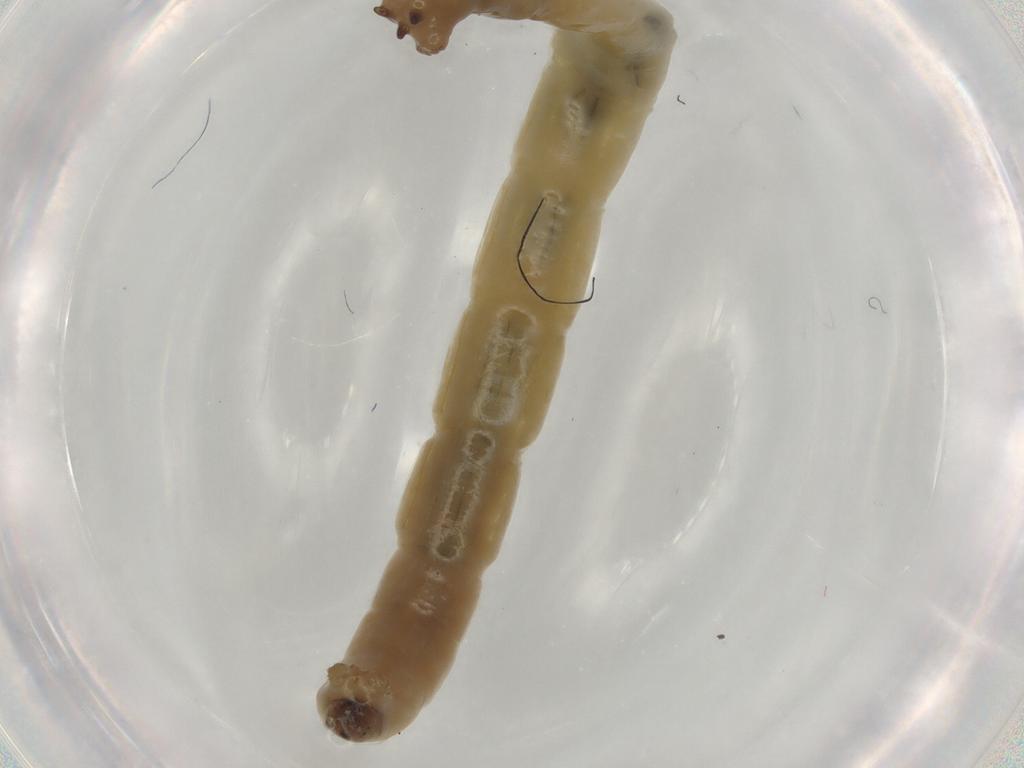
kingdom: Animalia
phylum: Arthropoda
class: Insecta
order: Diptera
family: Chironomidae
